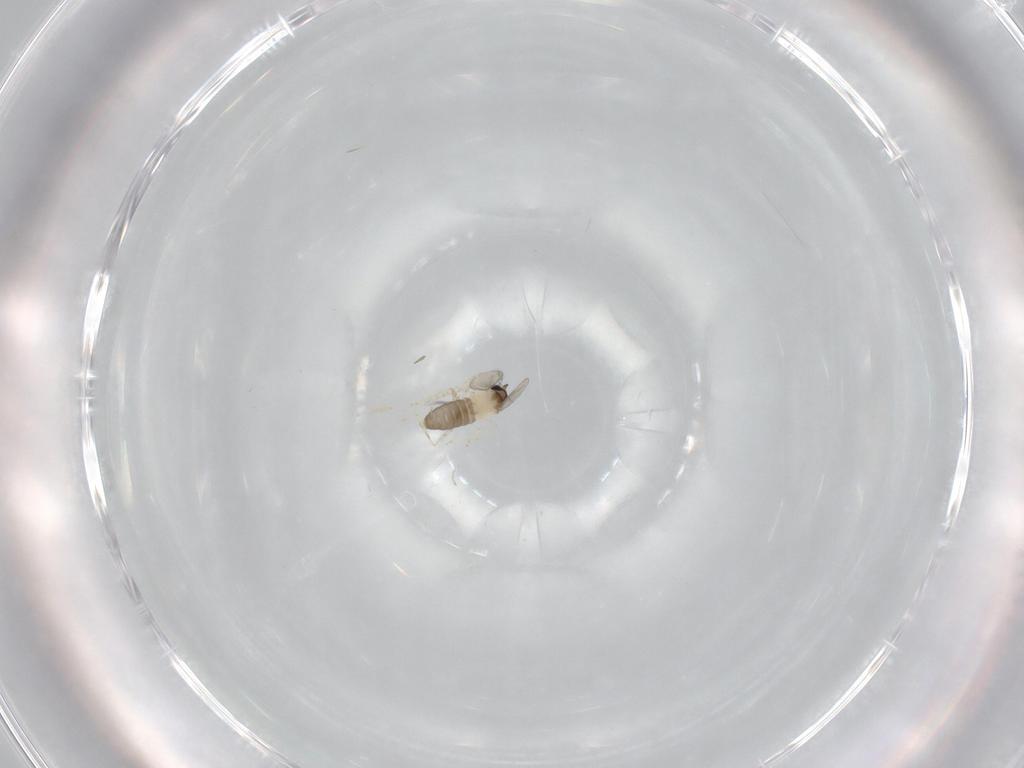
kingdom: Animalia
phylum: Arthropoda
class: Insecta
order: Diptera
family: Cecidomyiidae
